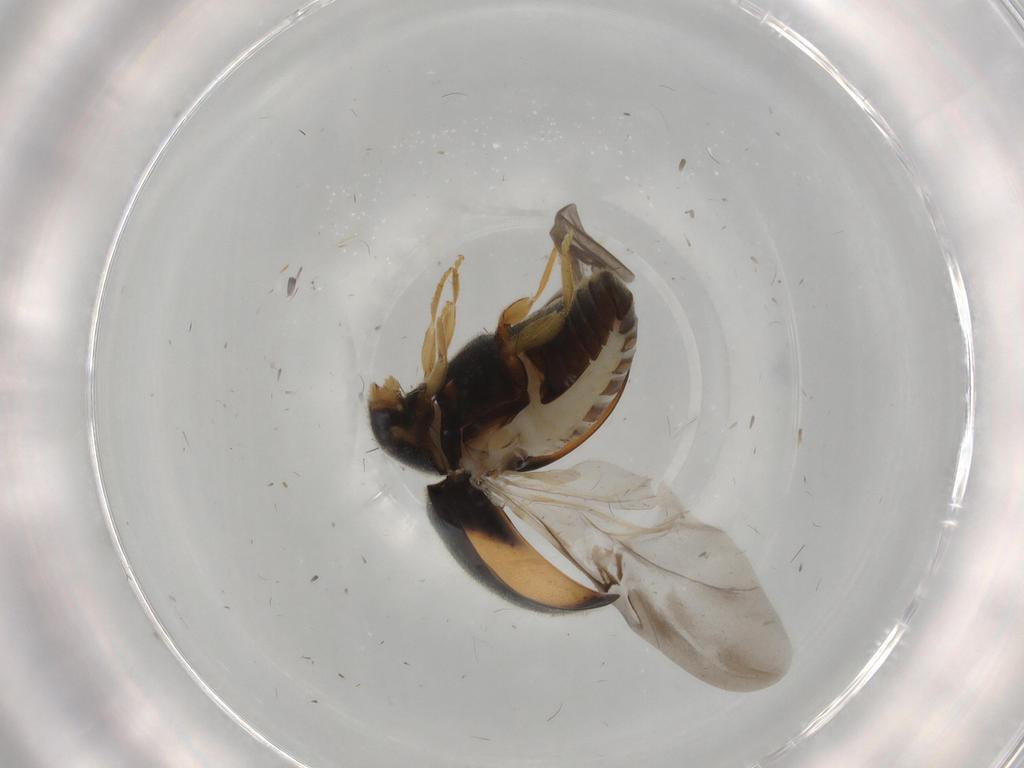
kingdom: Animalia
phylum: Arthropoda
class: Insecta
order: Coleoptera
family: Coccinellidae
